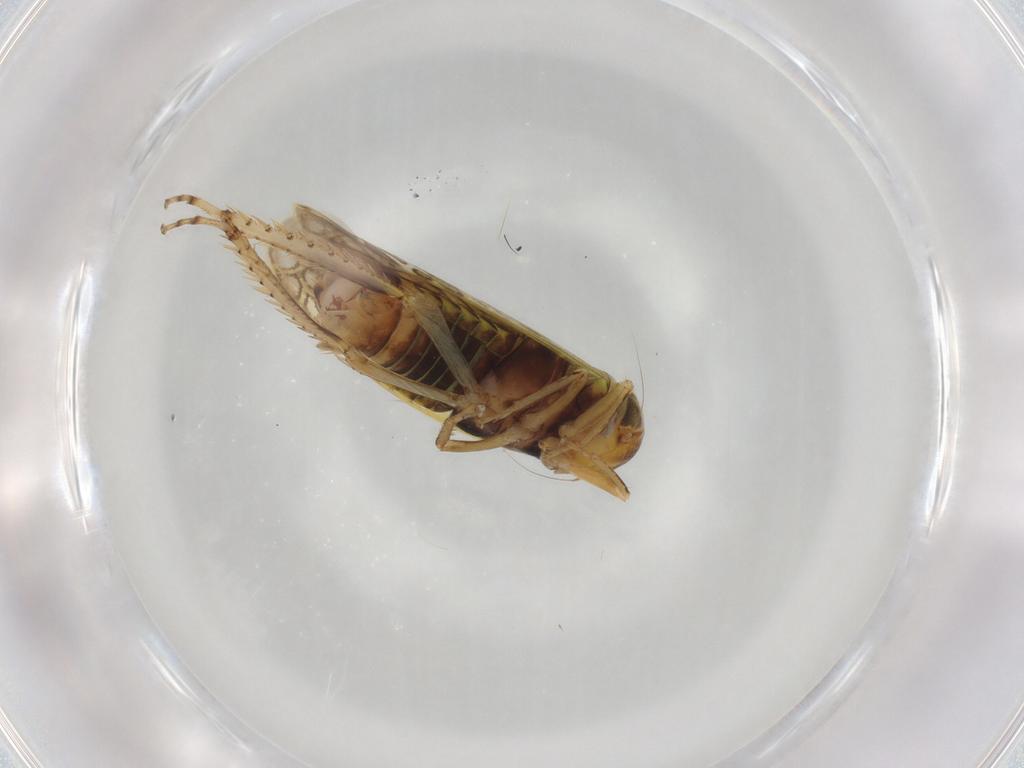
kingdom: Animalia
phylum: Arthropoda
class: Insecta
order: Hemiptera
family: Cicadellidae
